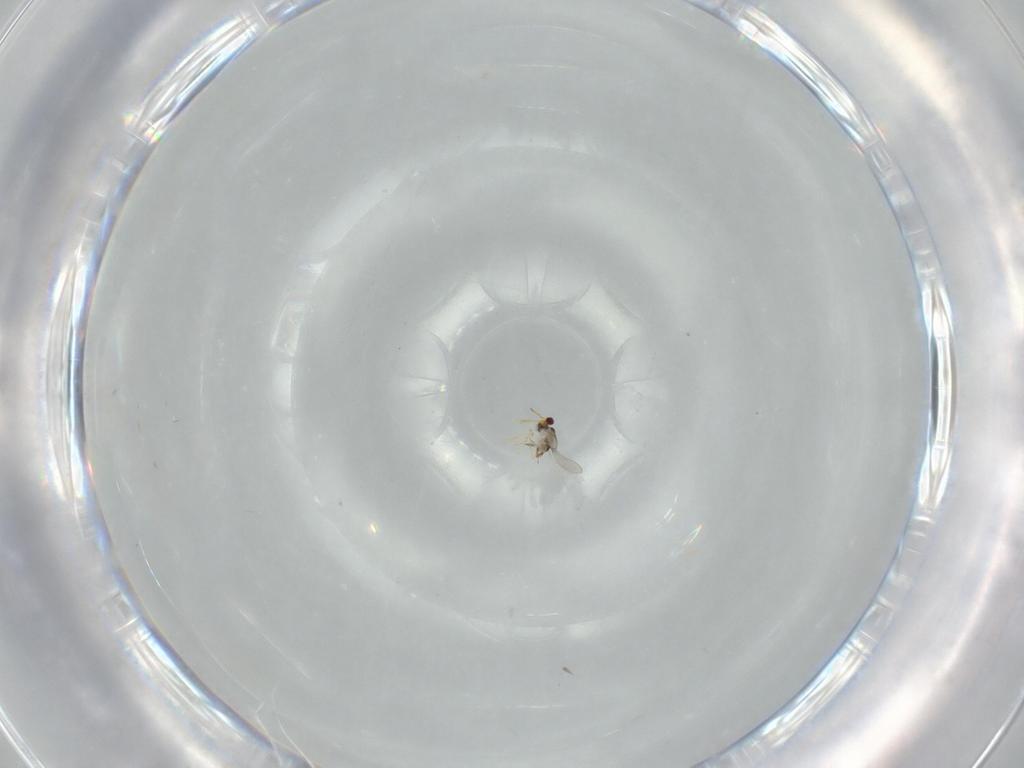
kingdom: Animalia
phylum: Arthropoda
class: Insecta
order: Hymenoptera
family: Aphelinidae
